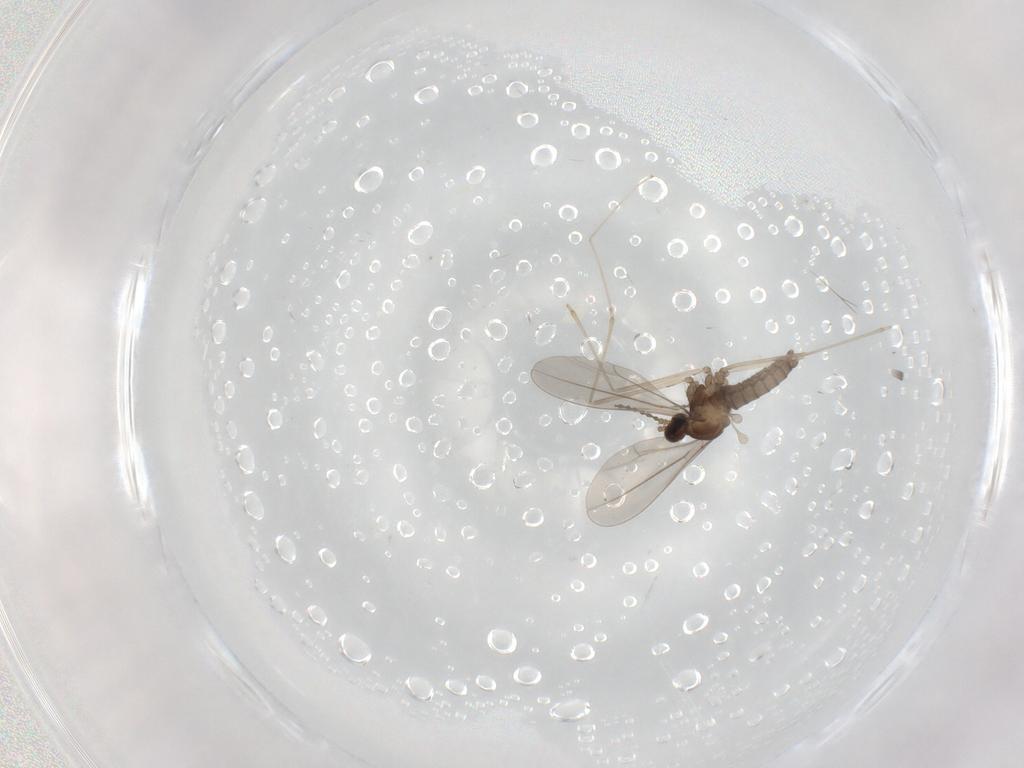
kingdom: Animalia
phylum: Arthropoda
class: Insecta
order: Diptera
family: Cecidomyiidae
